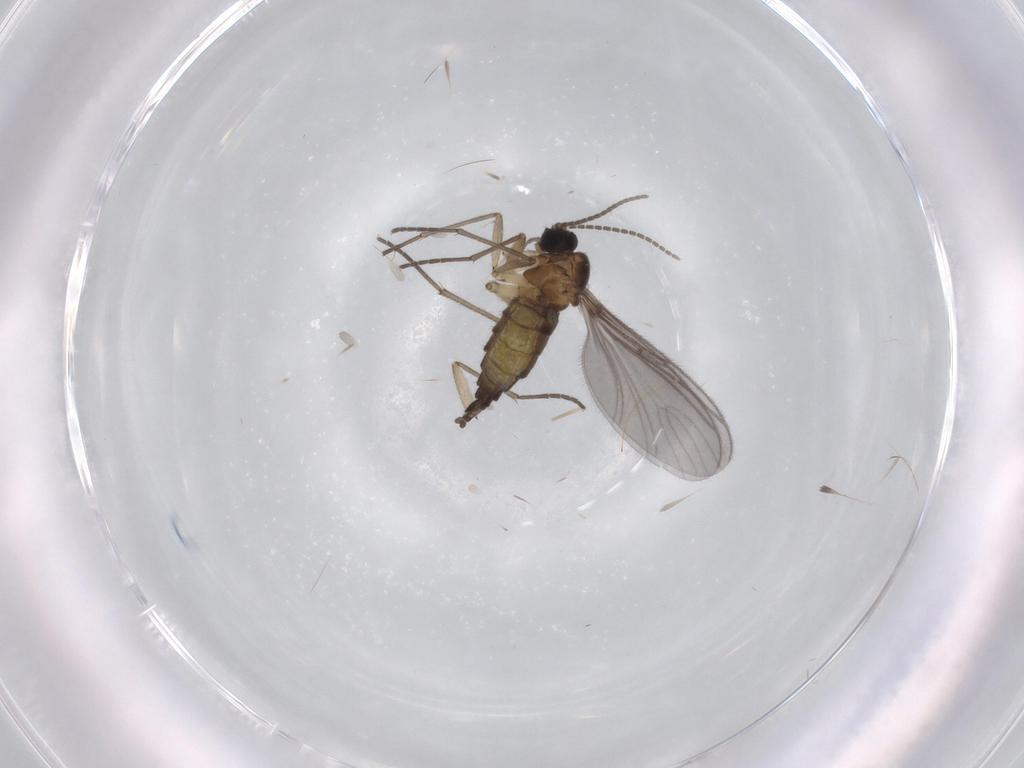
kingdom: Animalia
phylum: Arthropoda
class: Insecta
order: Diptera
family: Sciaridae
